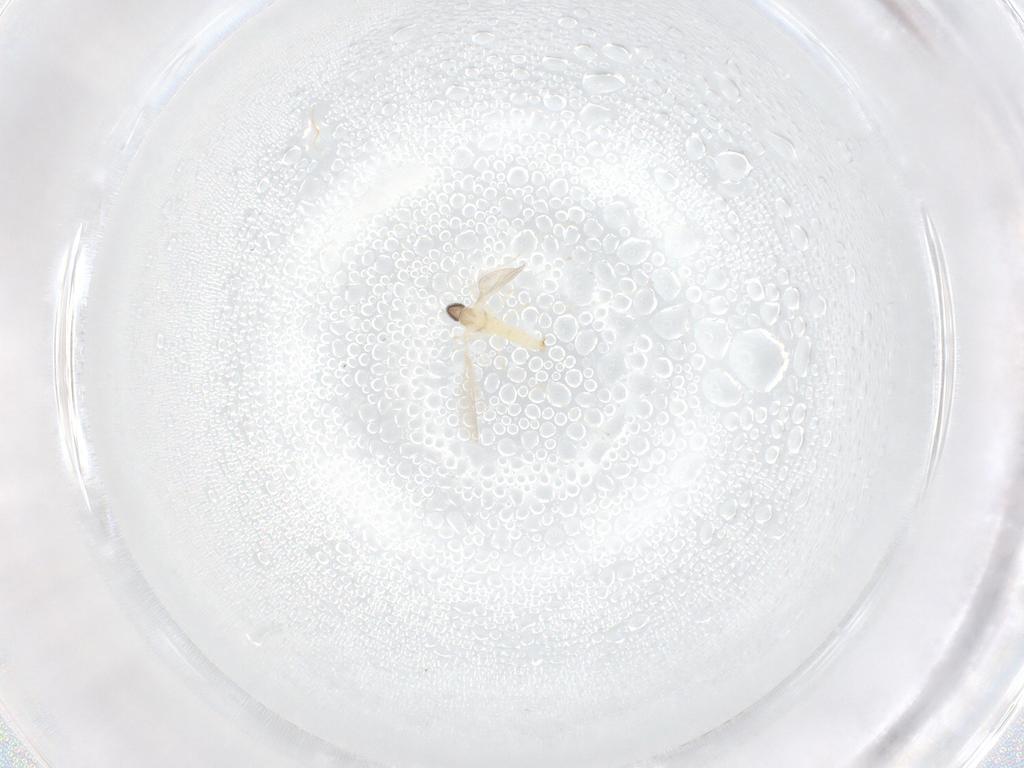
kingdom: Animalia
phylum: Arthropoda
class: Insecta
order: Diptera
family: Cecidomyiidae
